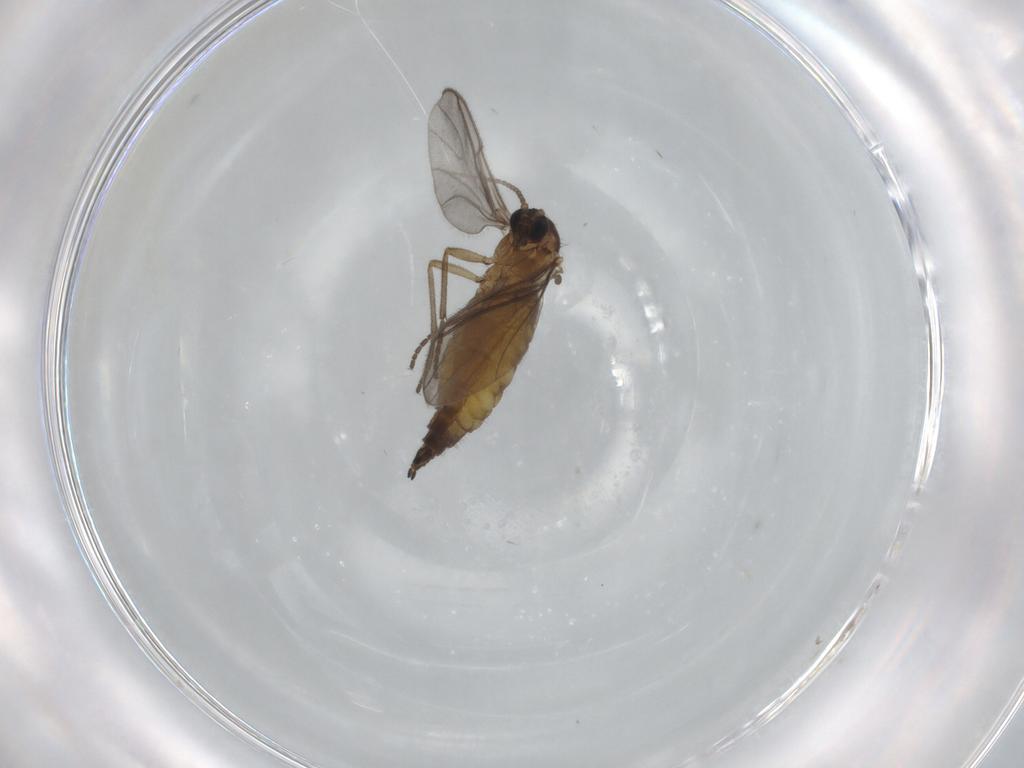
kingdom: Animalia
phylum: Arthropoda
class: Insecta
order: Diptera
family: Sciaridae
